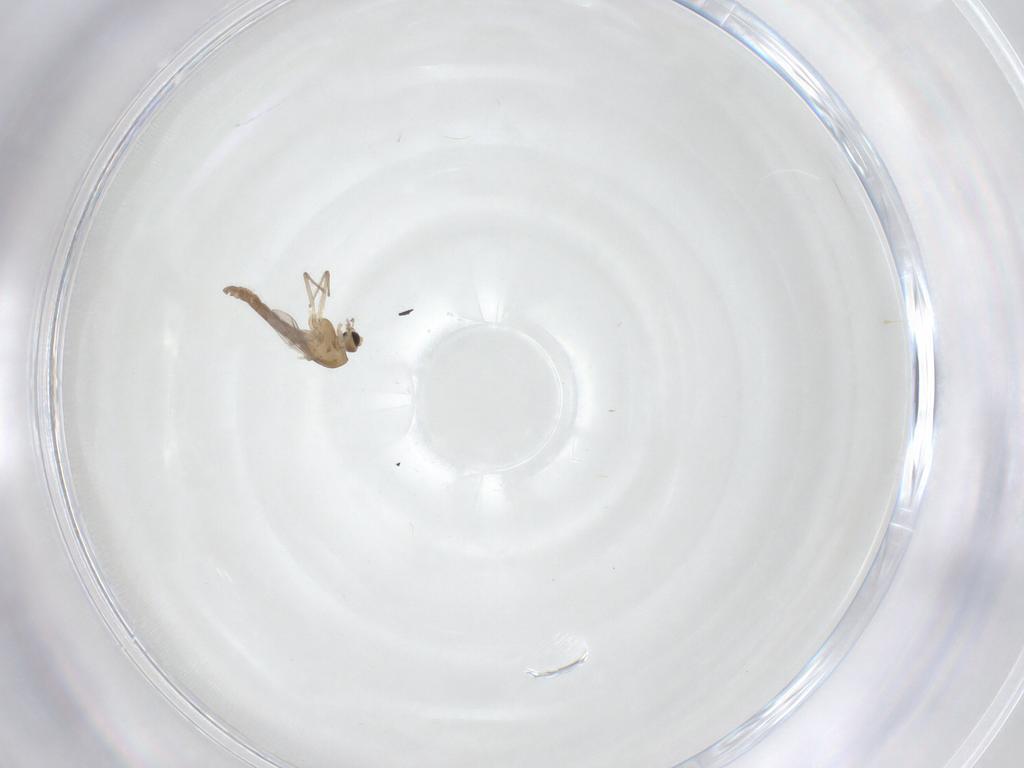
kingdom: Animalia
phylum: Arthropoda
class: Insecta
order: Diptera
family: Chironomidae
